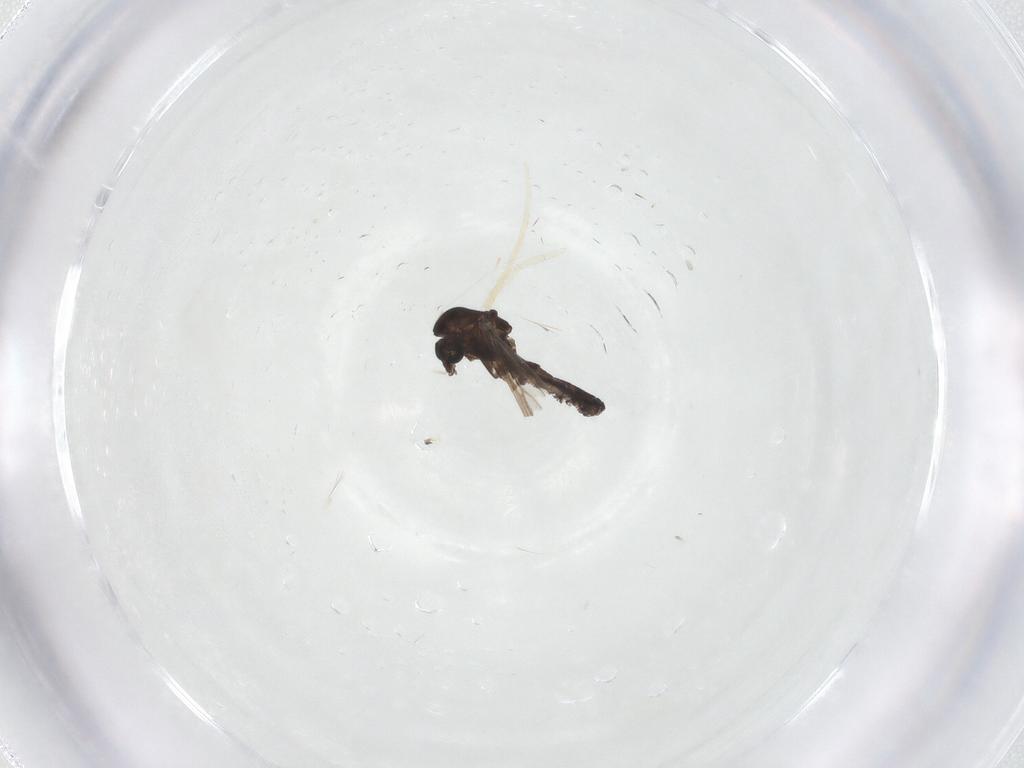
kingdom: Animalia
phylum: Arthropoda
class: Insecta
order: Diptera
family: Chironomidae
